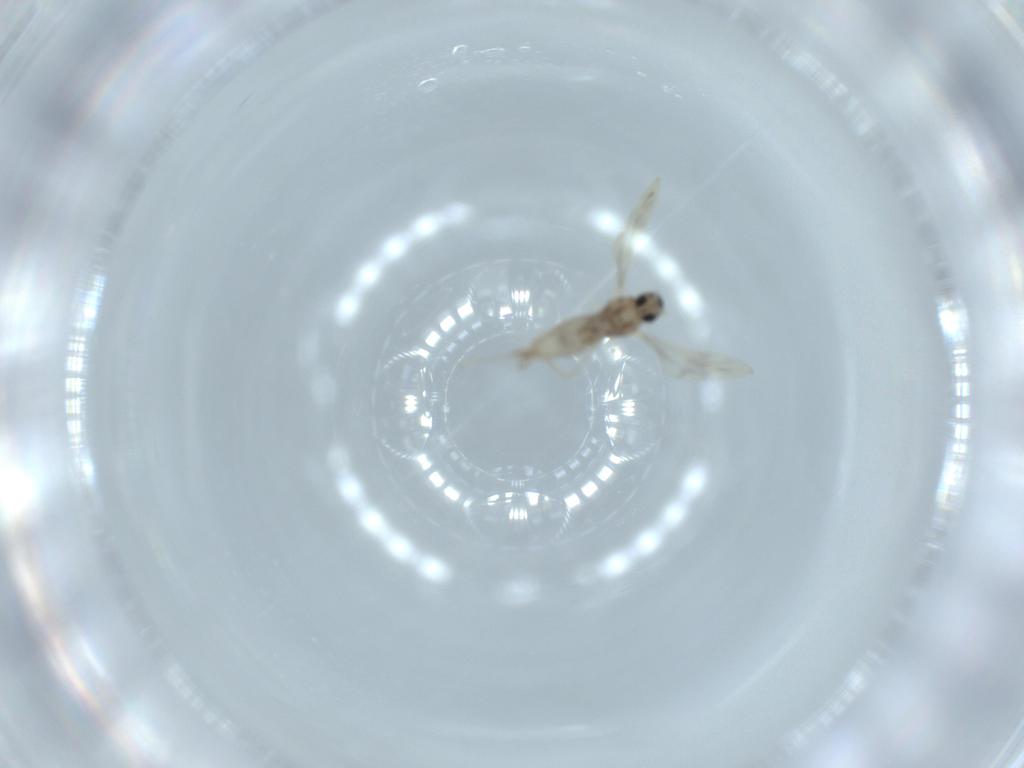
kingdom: Animalia
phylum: Arthropoda
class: Insecta
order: Diptera
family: Cecidomyiidae
